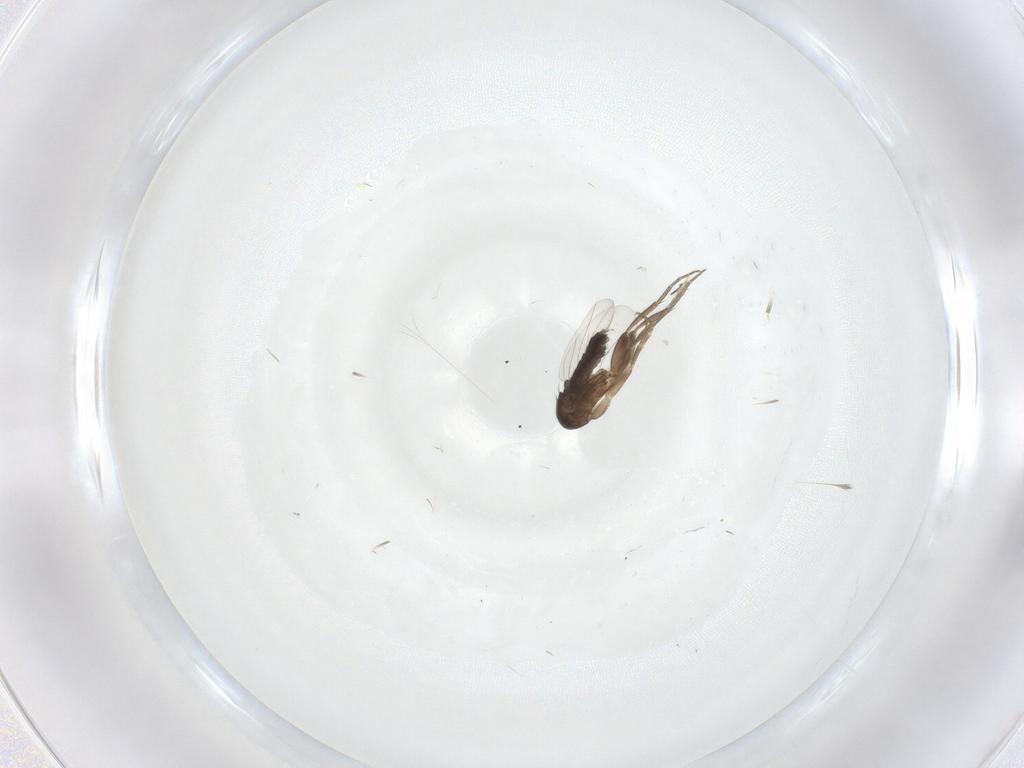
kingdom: Animalia
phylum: Arthropoda
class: Insecta
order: Diptera
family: Phoridae
